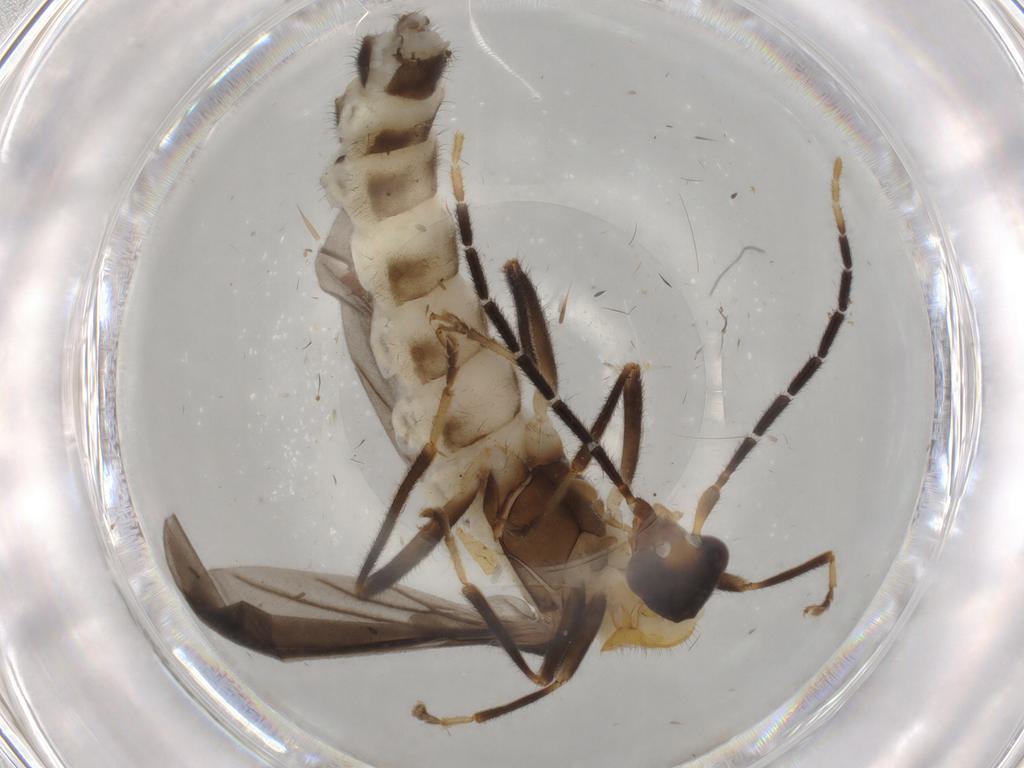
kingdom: Animalia
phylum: Arthropoda
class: Insecta
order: Coleoptera
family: Cantharidae
